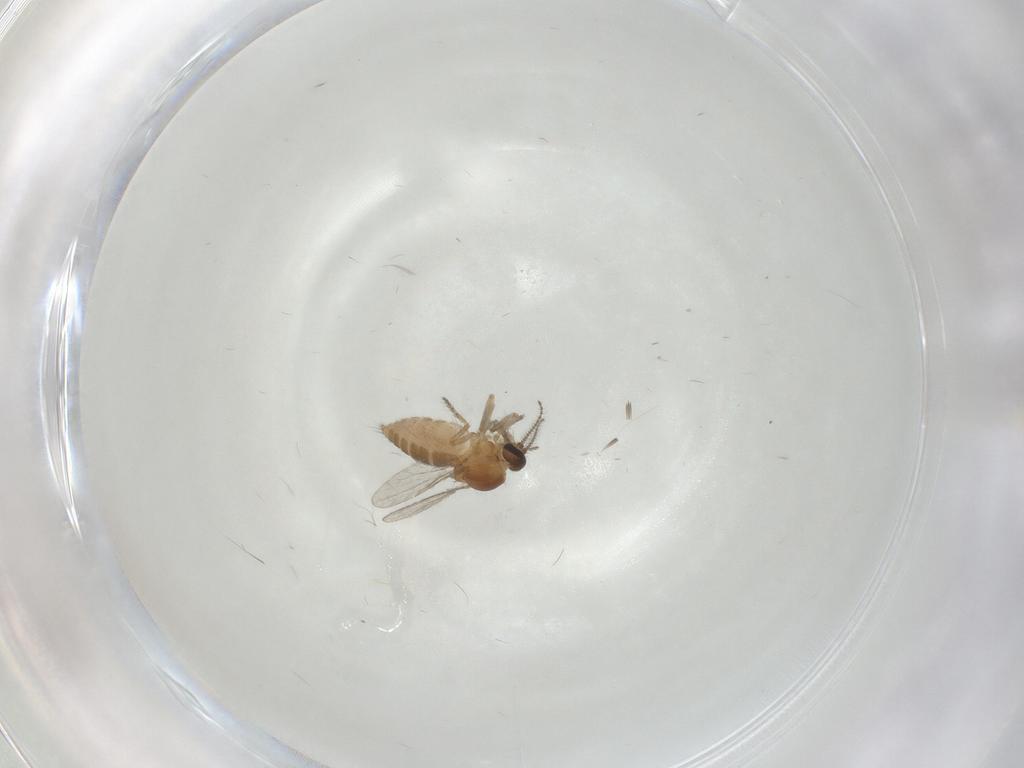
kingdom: Animalia
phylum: Arthropoda
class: Insecta
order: Diptera
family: Ceratopogonidae
